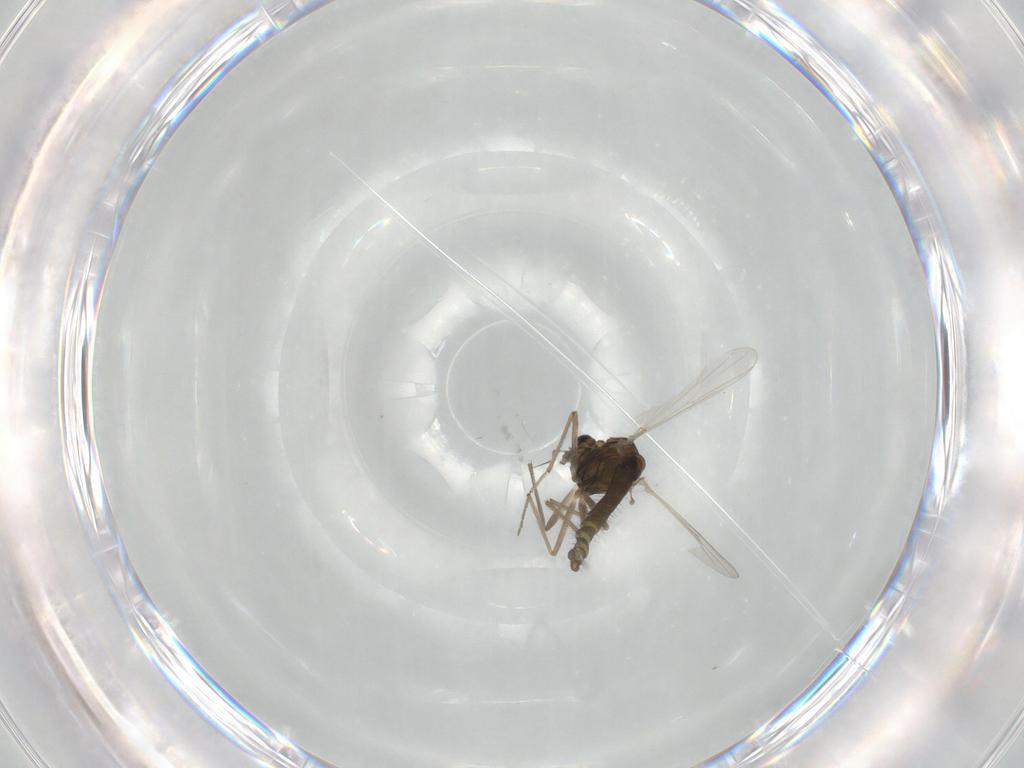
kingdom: Animalia
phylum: Arthropoda
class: Insecta
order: Diptera
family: Chironomidae
